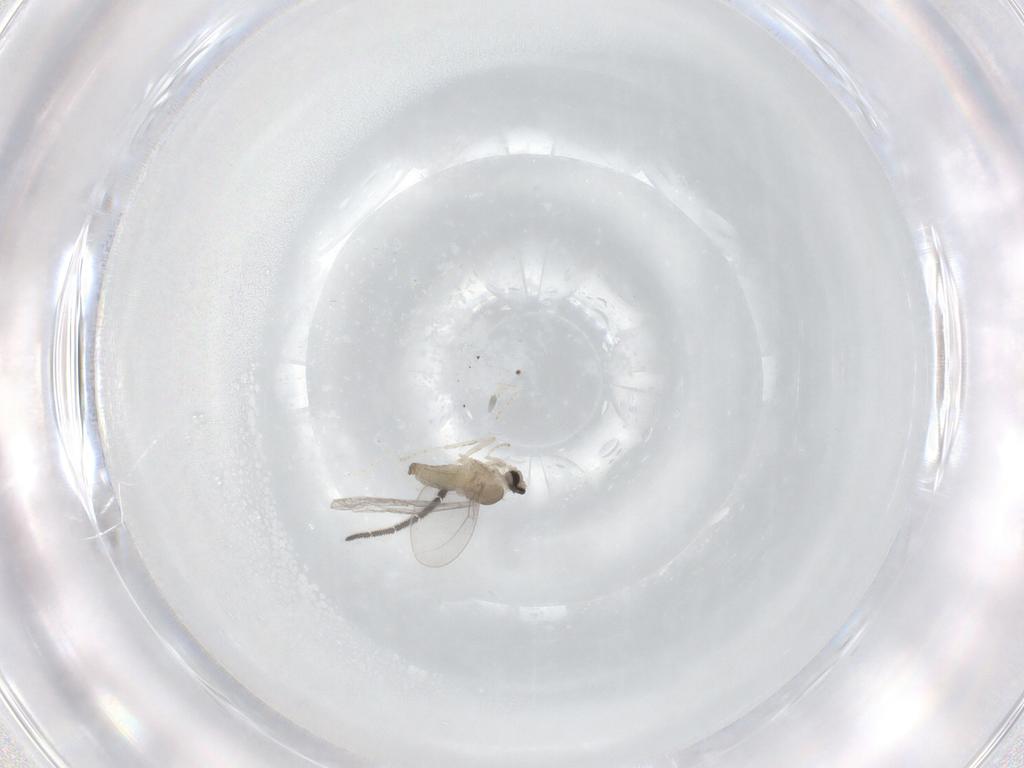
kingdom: Animalia
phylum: Arthropoda
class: Insecta
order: Diptera
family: Cecidomyiidae
